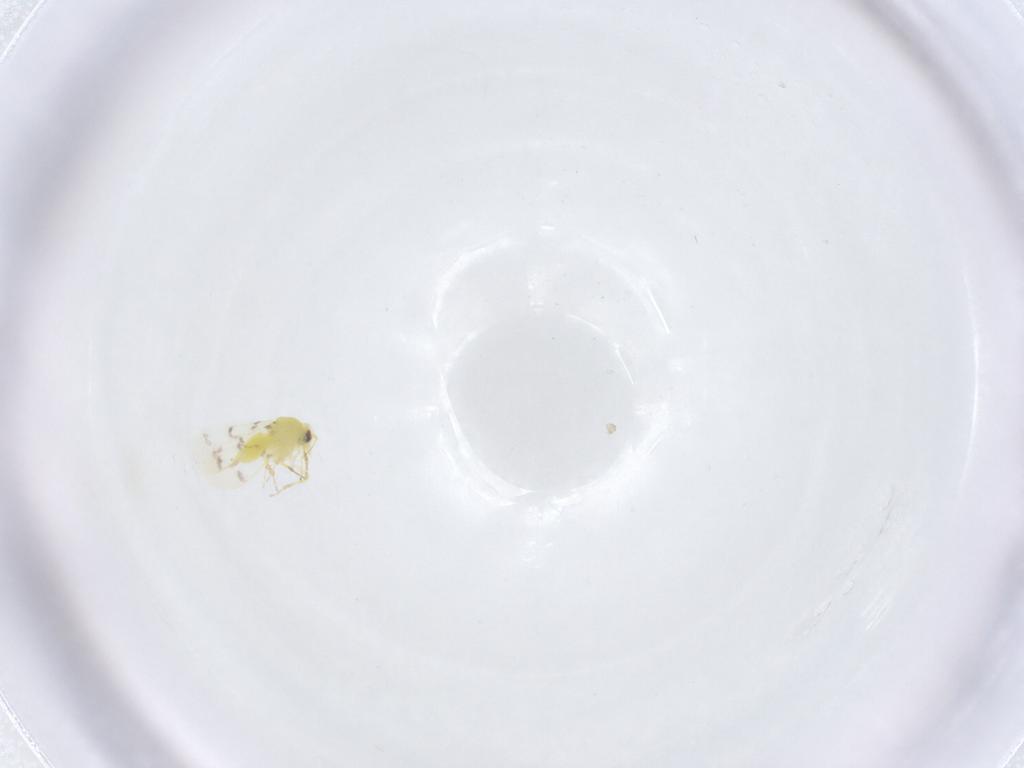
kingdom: Animalia
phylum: Arthropoda
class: Insecta
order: Hemiptera
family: Aleyrodidae
